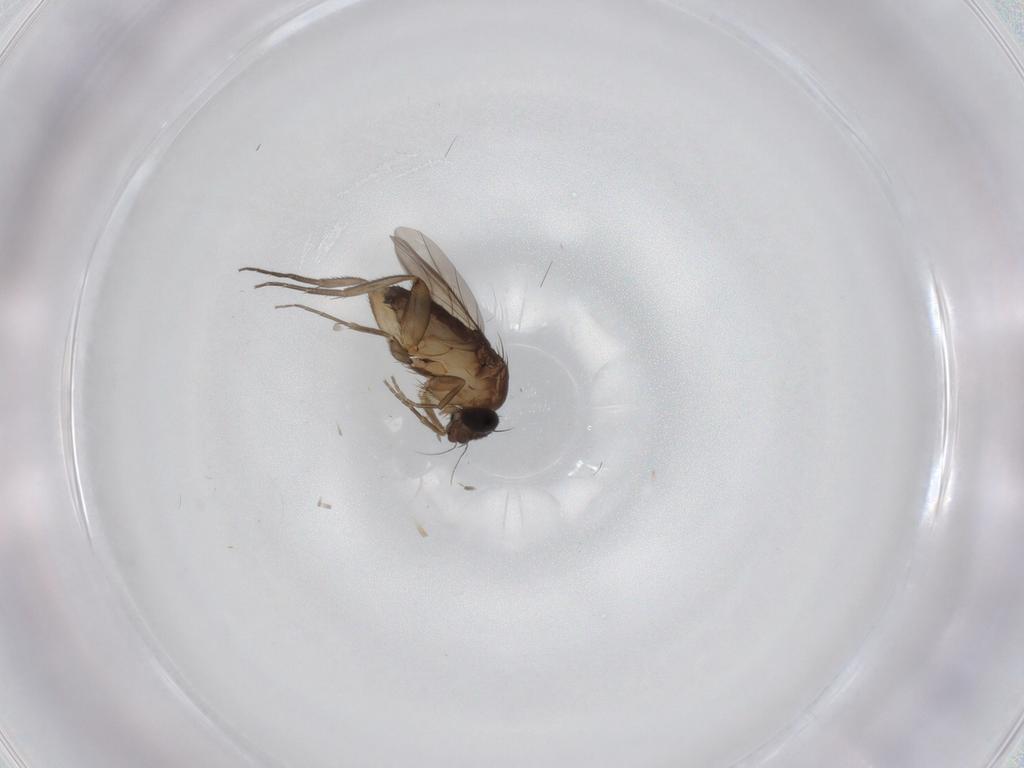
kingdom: Animalia
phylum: Arthropoda
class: Insecta
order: Diptera
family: Phoridae
